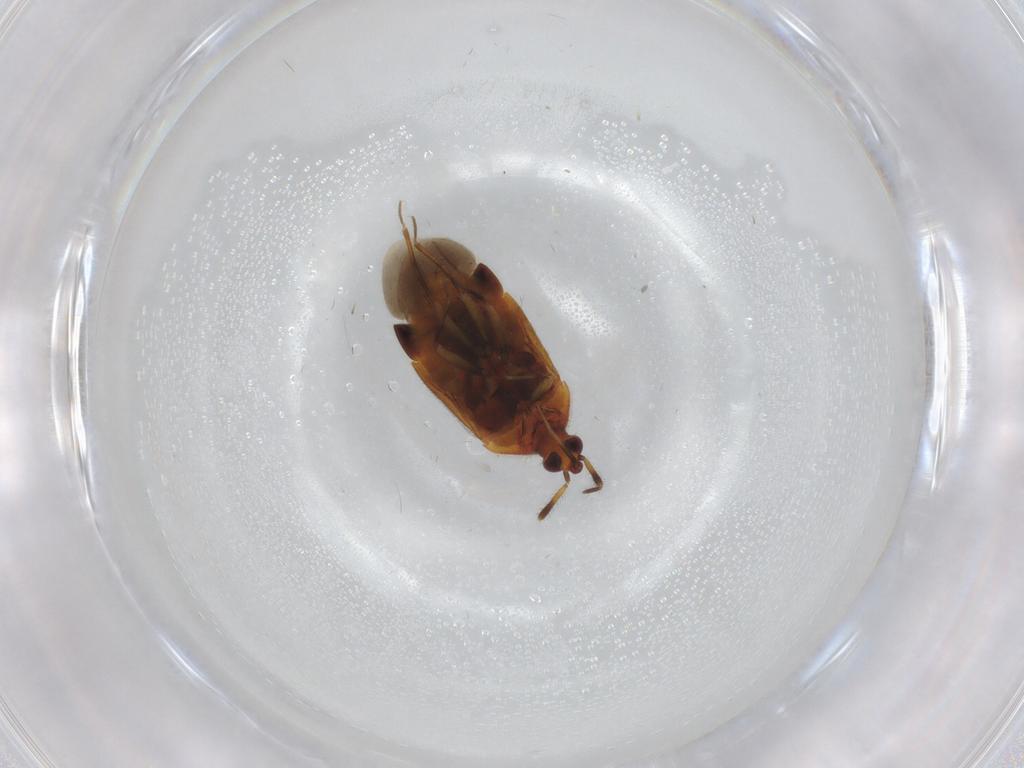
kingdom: Animalia
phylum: Arthropoda
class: Insecta
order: Hemiptera
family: Anthocoridae
